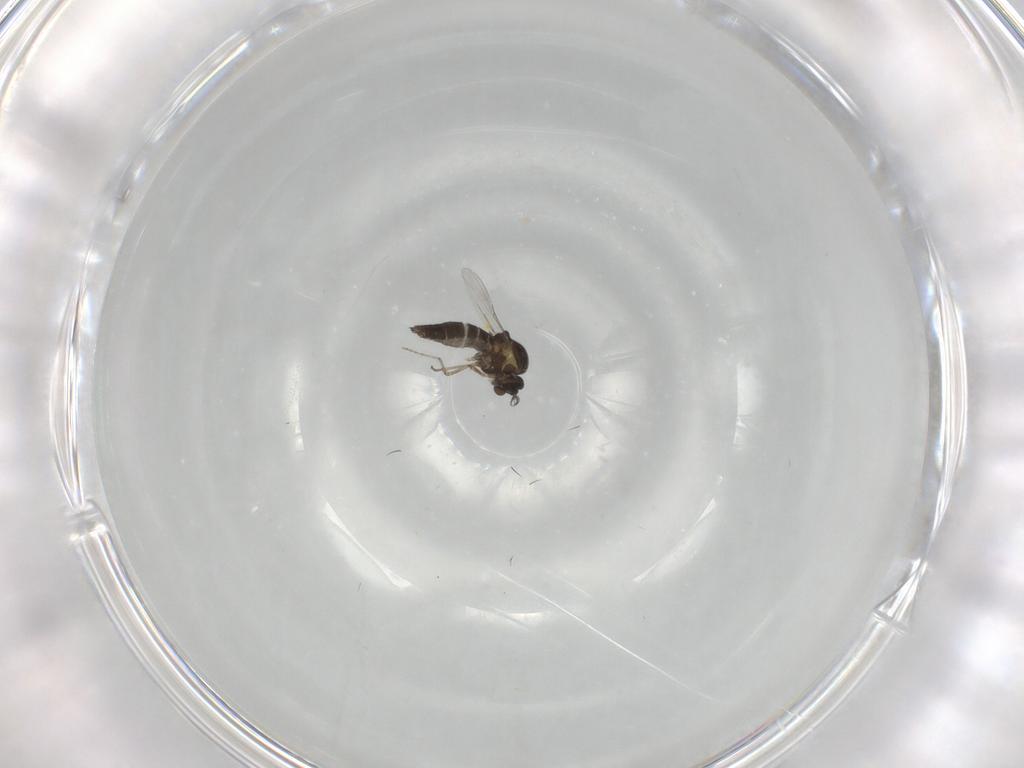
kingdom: Animalia
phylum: Arthropoda
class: Insecta
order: Diptera
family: Ceratopogonidae
